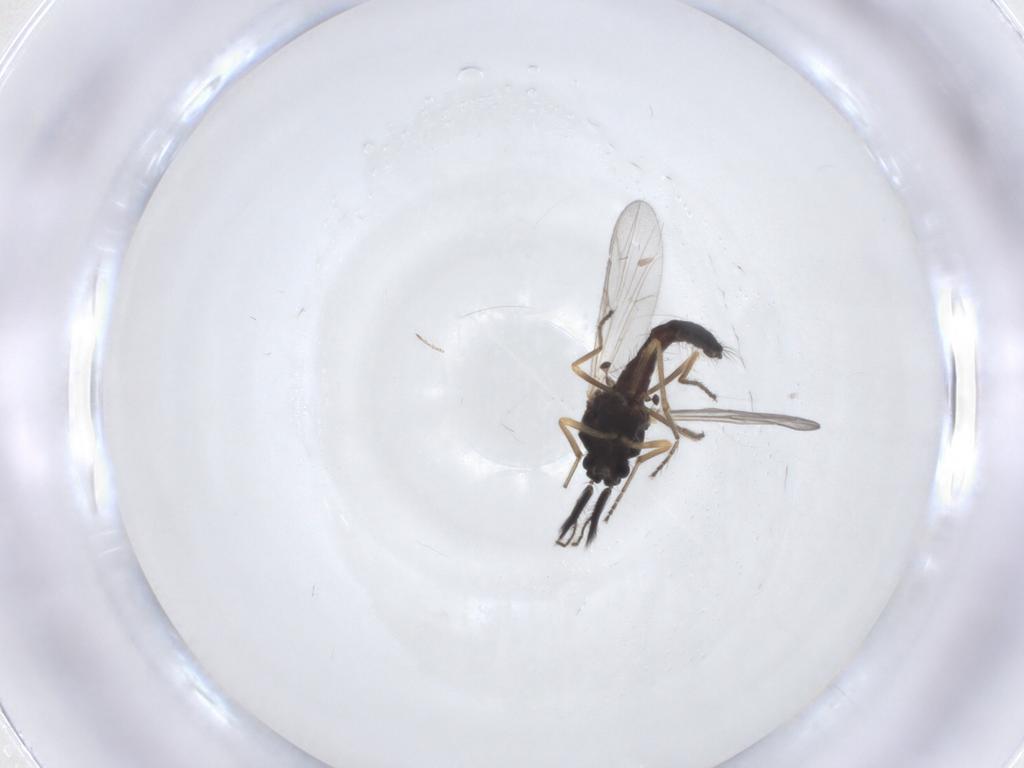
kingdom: Animalia
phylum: Arthropoda
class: Insecta
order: Diptera
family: Ceratopogonidae
